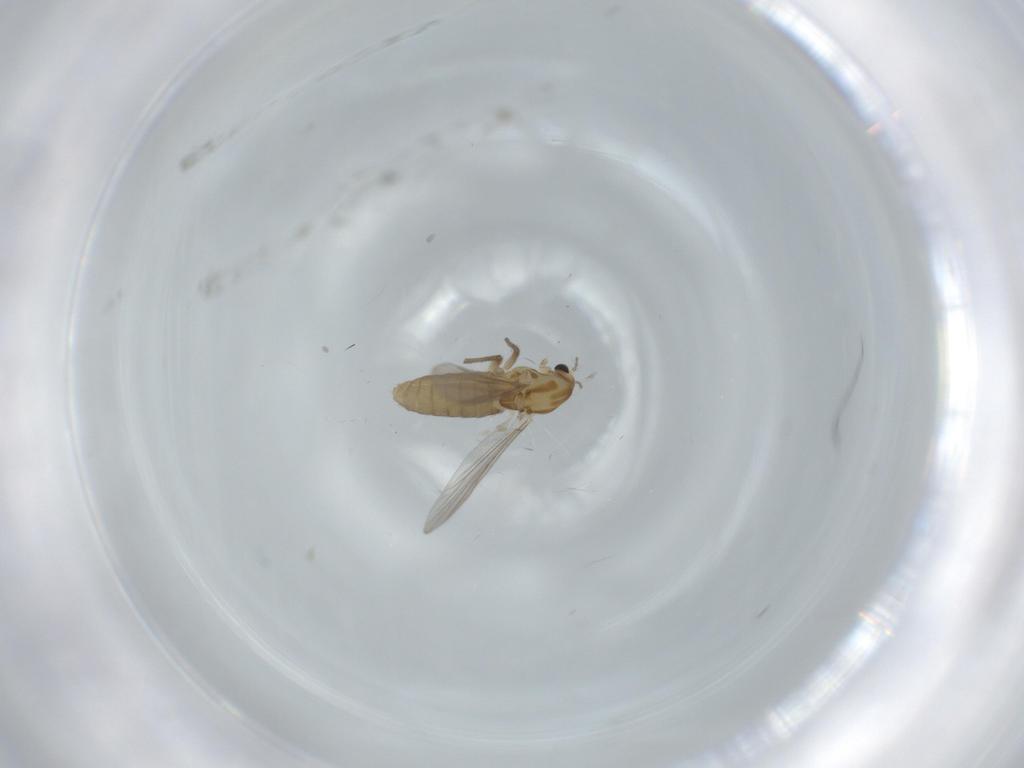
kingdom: Animalia
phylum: Arthropoda
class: Insecta
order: Diptera
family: Chironomidae
